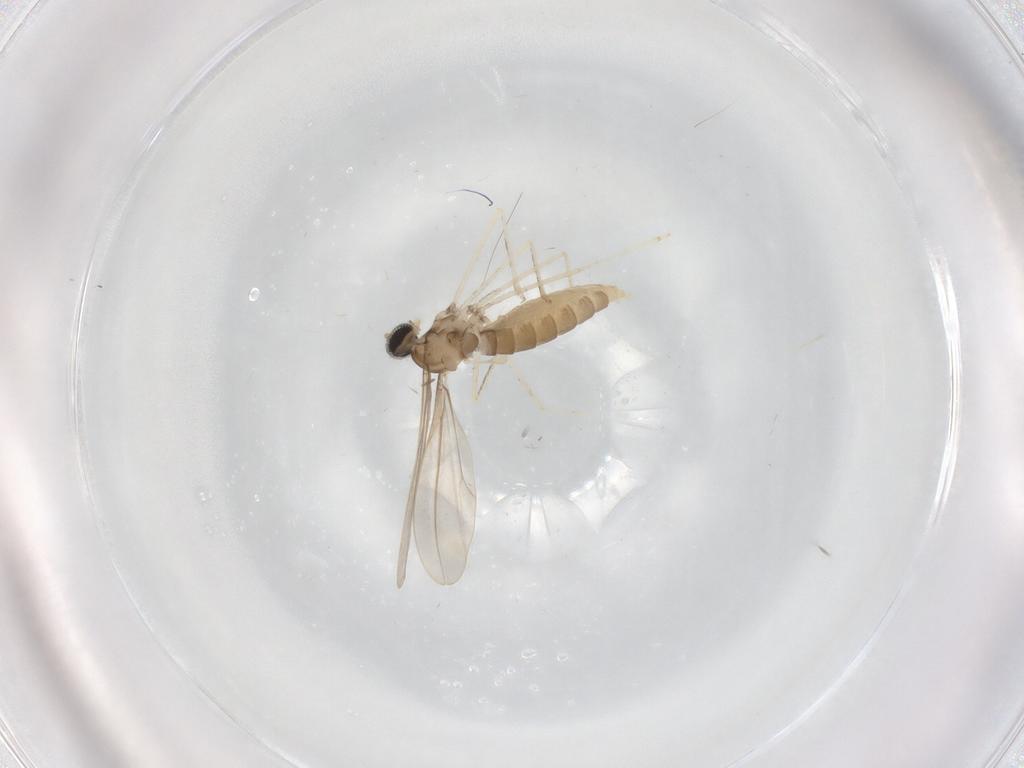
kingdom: Animalia
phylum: Arthropoda
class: Insecta
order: Diptera
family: Cecidomyiidae
